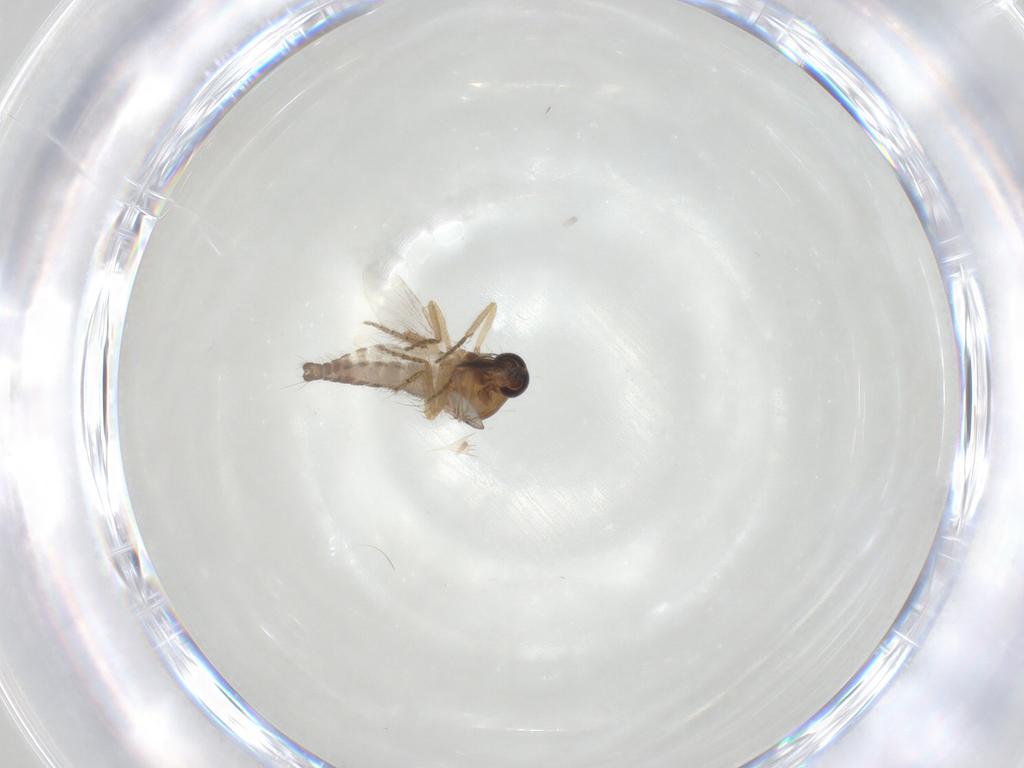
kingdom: Animalia
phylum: Arthropoda
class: Insecta
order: Diptera
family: Ceratopogonidae
